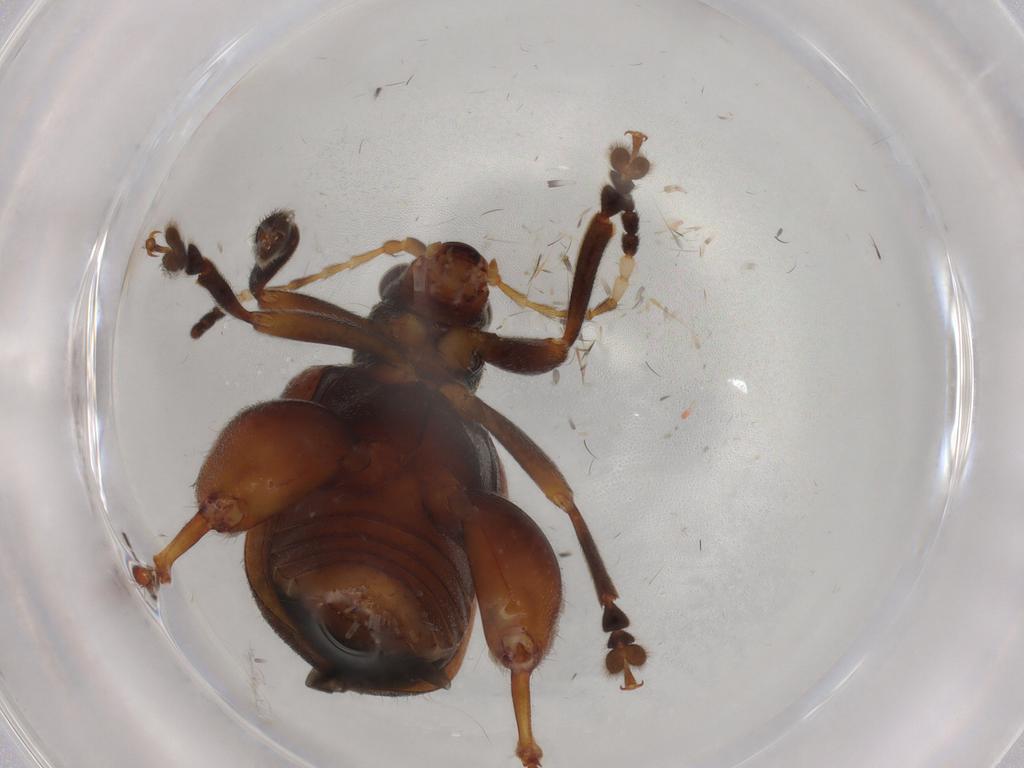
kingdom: Animalia
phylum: Arthropoda
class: Insecta
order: Coleoptera
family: Chrysomelidae
